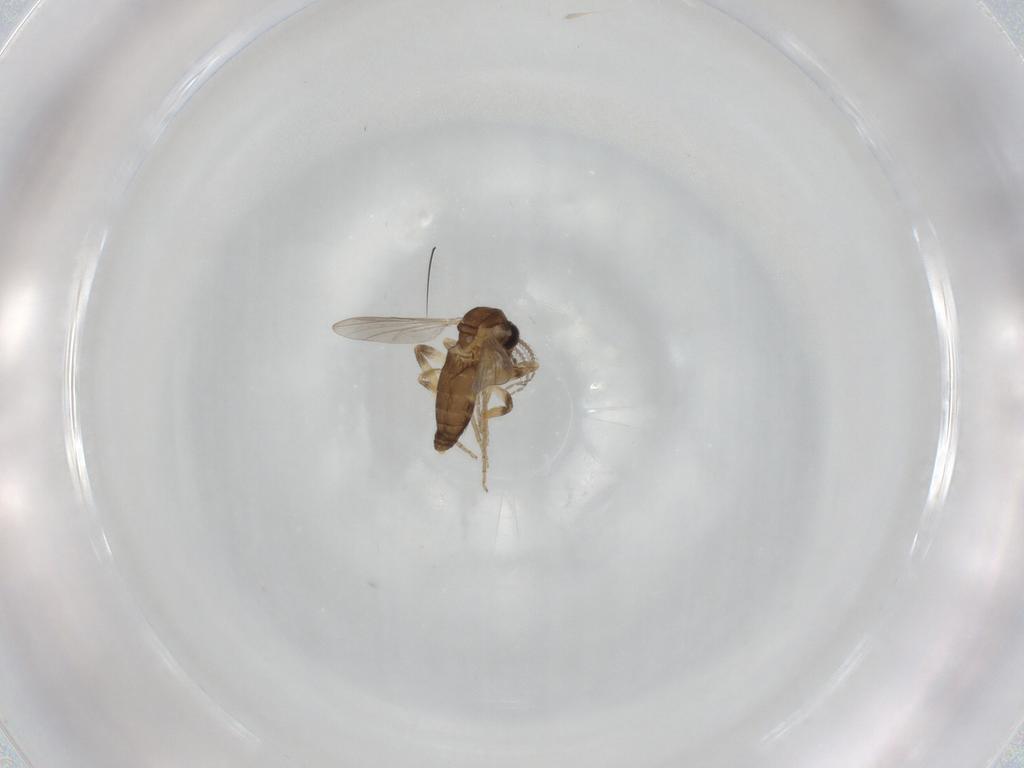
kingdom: Animalia
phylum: Arthropoda
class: Insecta
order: Diptera
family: Ceratopogonidae
